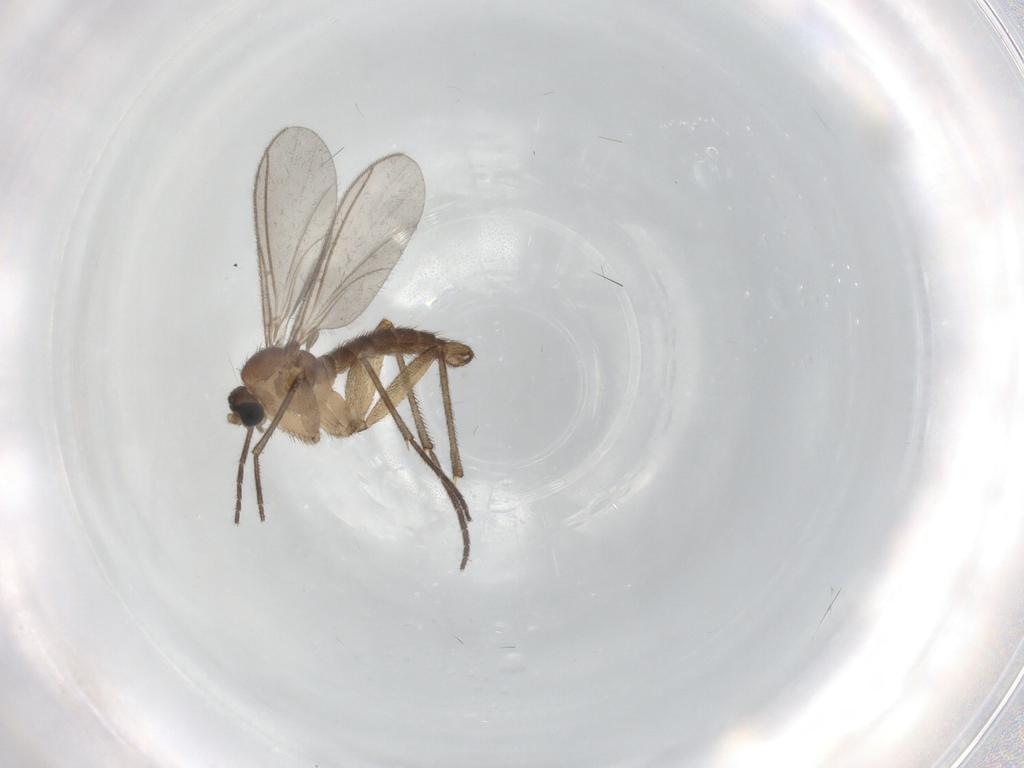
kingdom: Animalia
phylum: Arthropoda
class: Insecta
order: Diptera
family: Sciaridae
